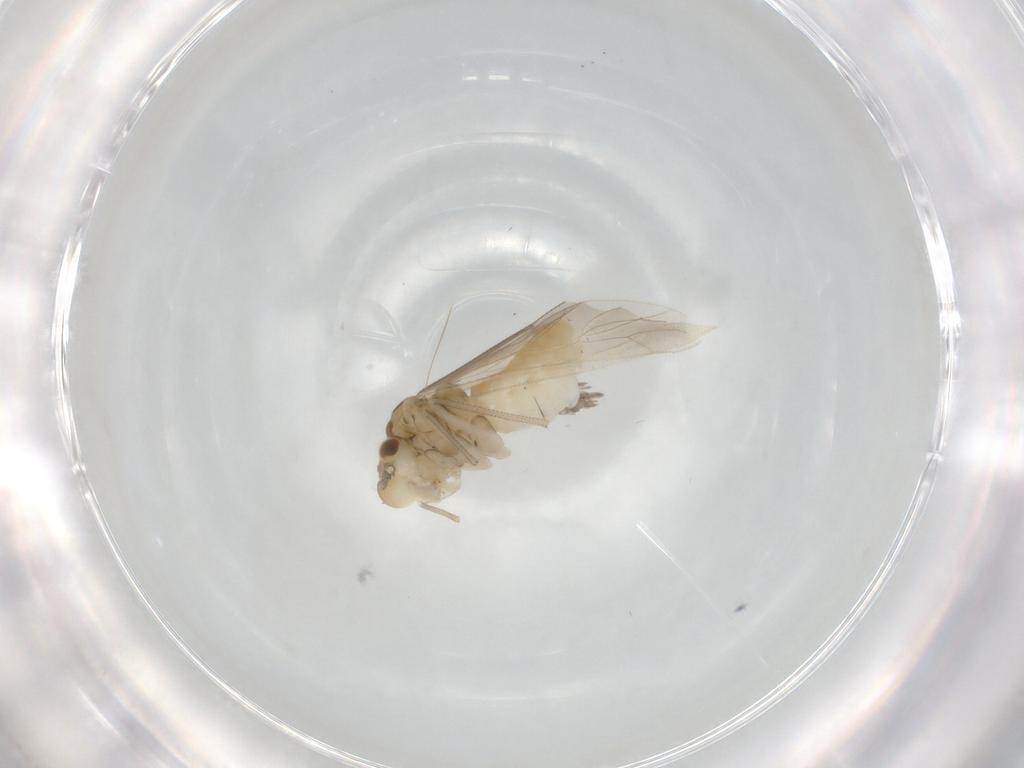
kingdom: Animalia
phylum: Arthropoda
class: Insecta
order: Psocodea
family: Caeciliusidae
